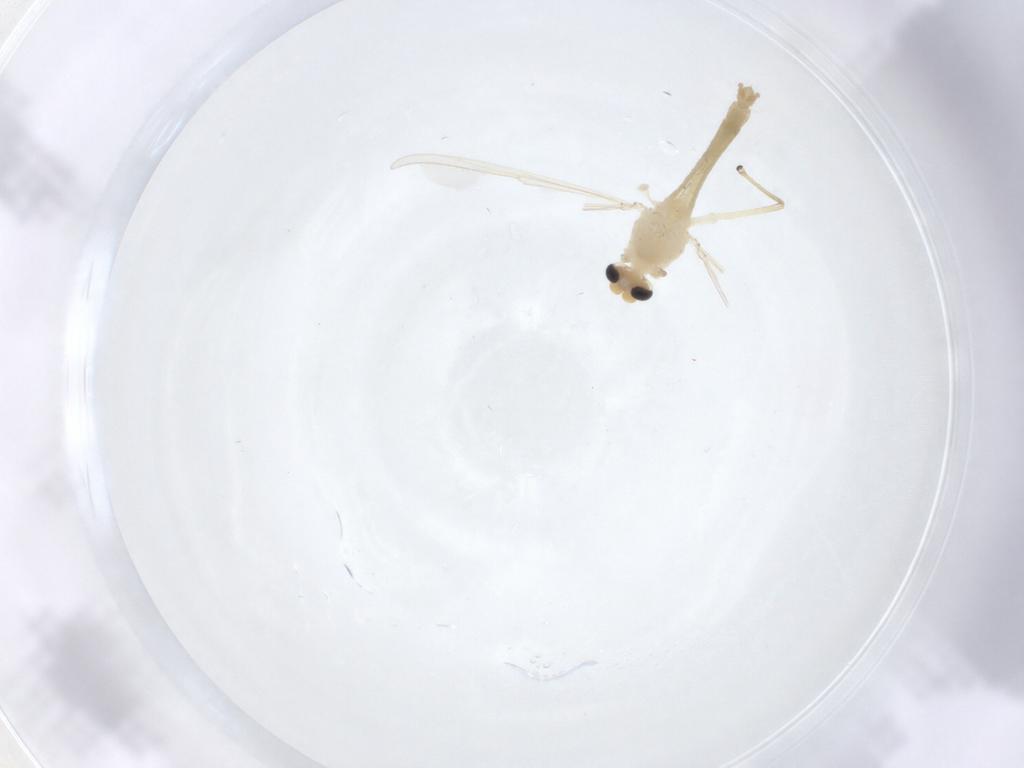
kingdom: Animalia
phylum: Arthropoda
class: Insecta
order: Diptera
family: Chironomidae
